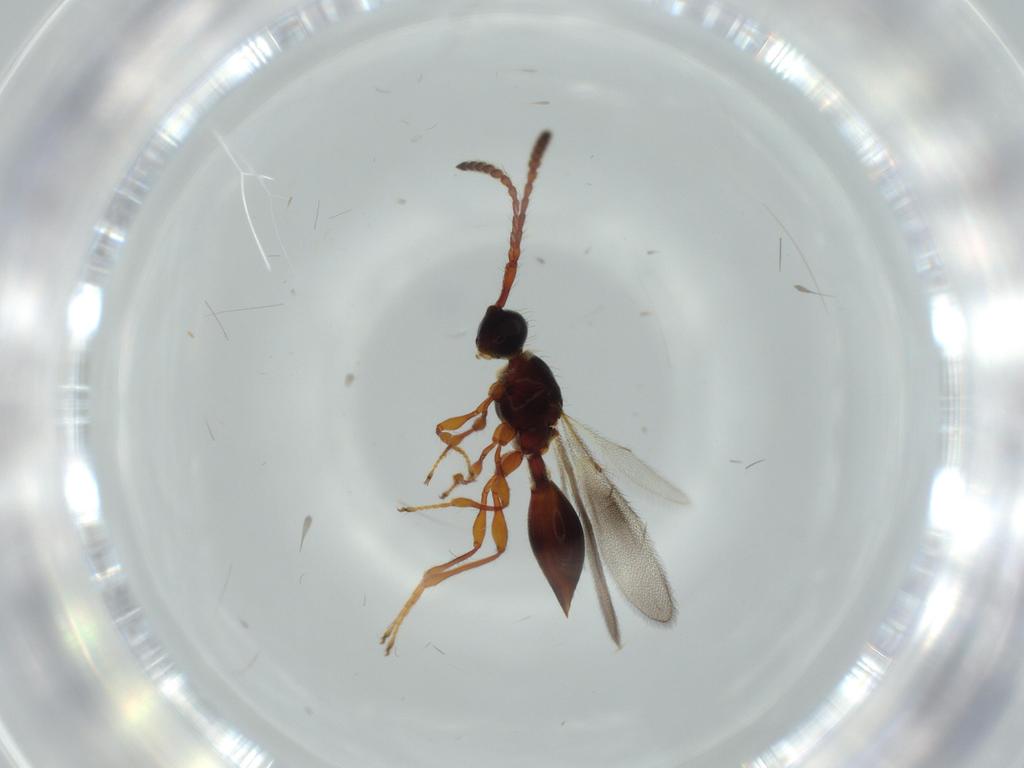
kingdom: Animalia
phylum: Arthropoda
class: Insecta
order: Hymenoptera
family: Diapriidae
